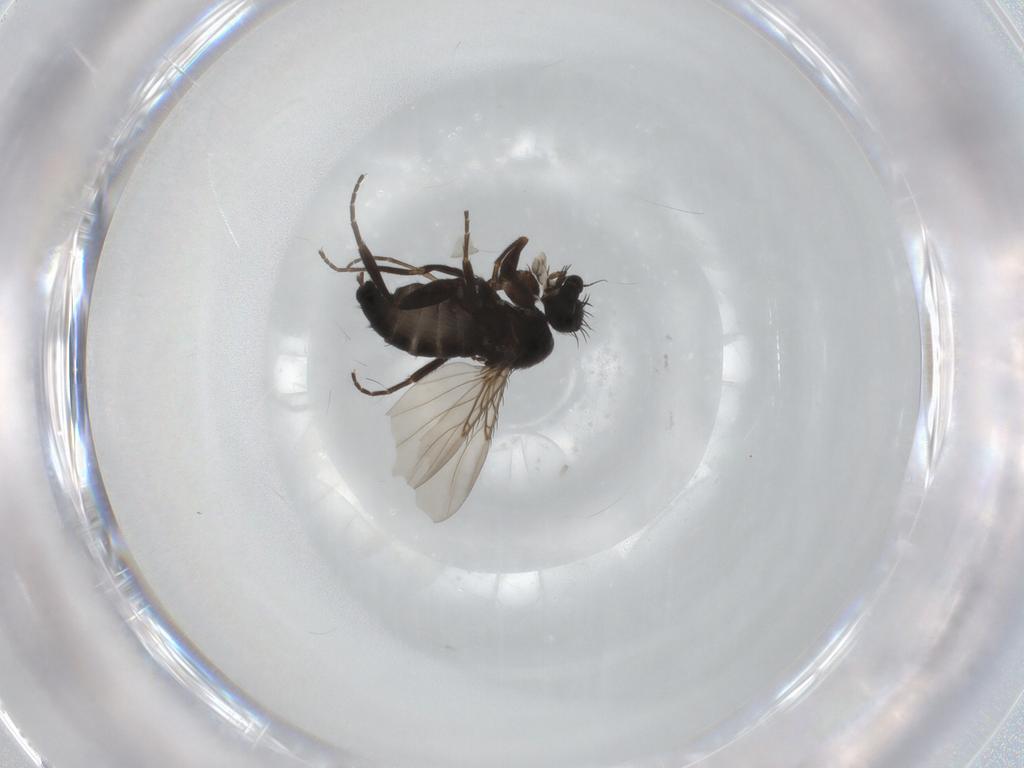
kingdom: Animalia
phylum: Arthropoda
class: Insecta
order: Diptera
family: Phoridae
